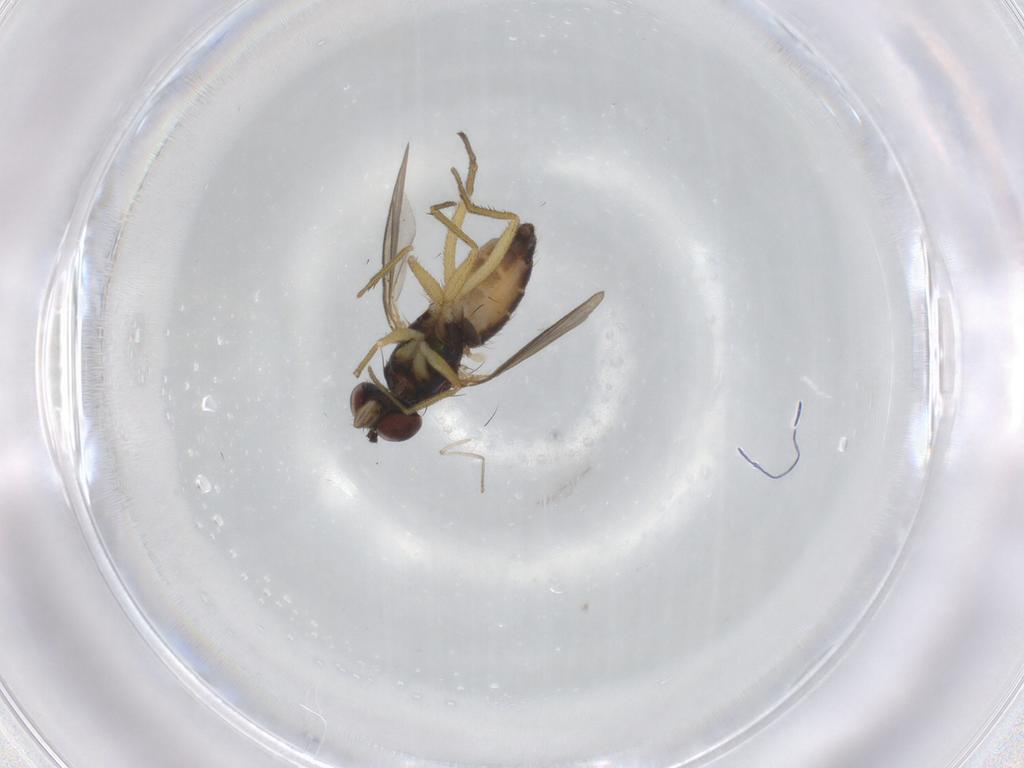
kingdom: Animalia
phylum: Arthropoda
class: Insecta
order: Diptera
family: Dolichopodidae
